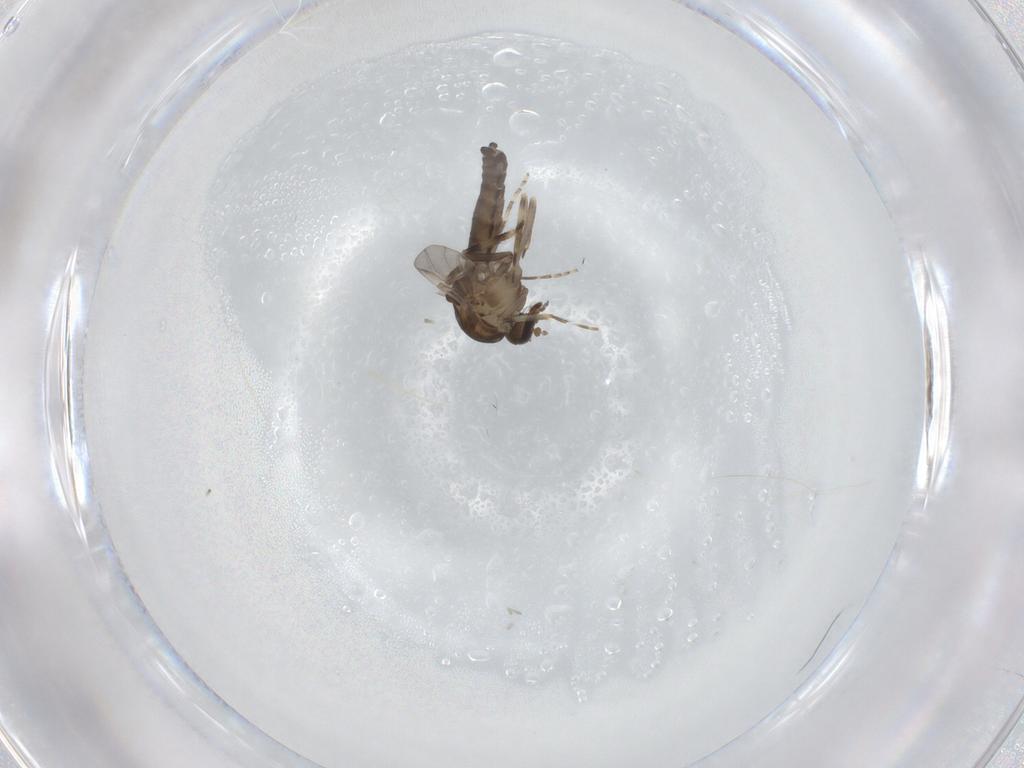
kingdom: Animalia
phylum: Arthropoda
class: Insecta
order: Diptera
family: Ceratopogonidae
